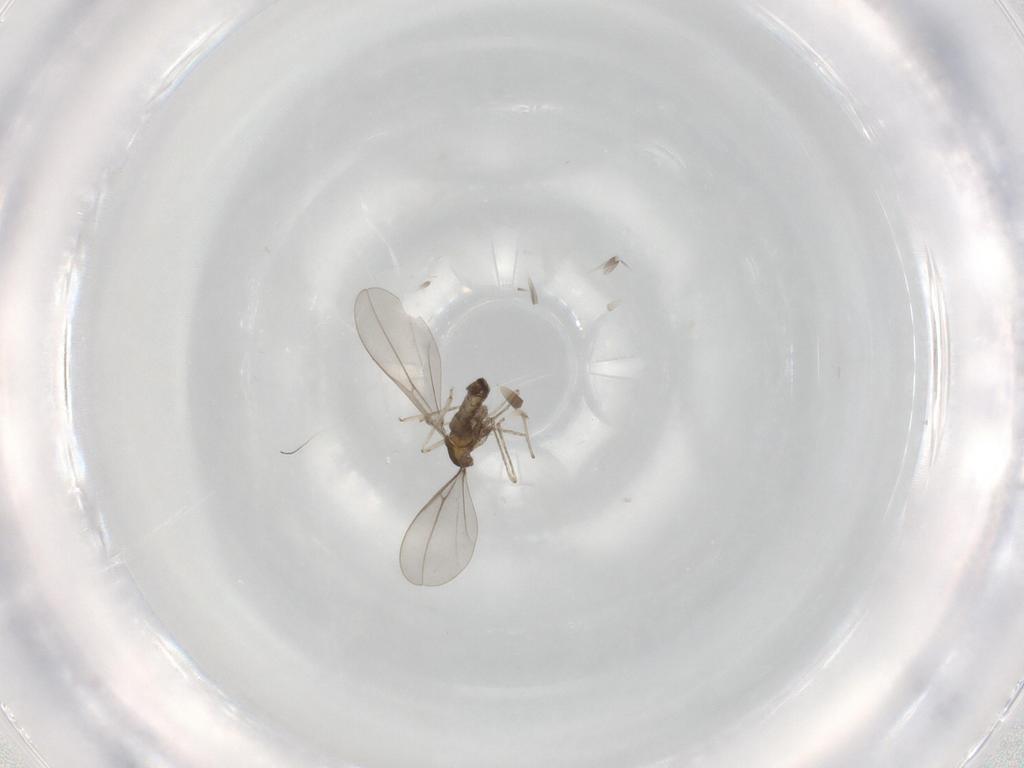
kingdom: Animalia
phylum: Arthropoda
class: Insecta
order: Diptera
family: Cecidomyiidae
